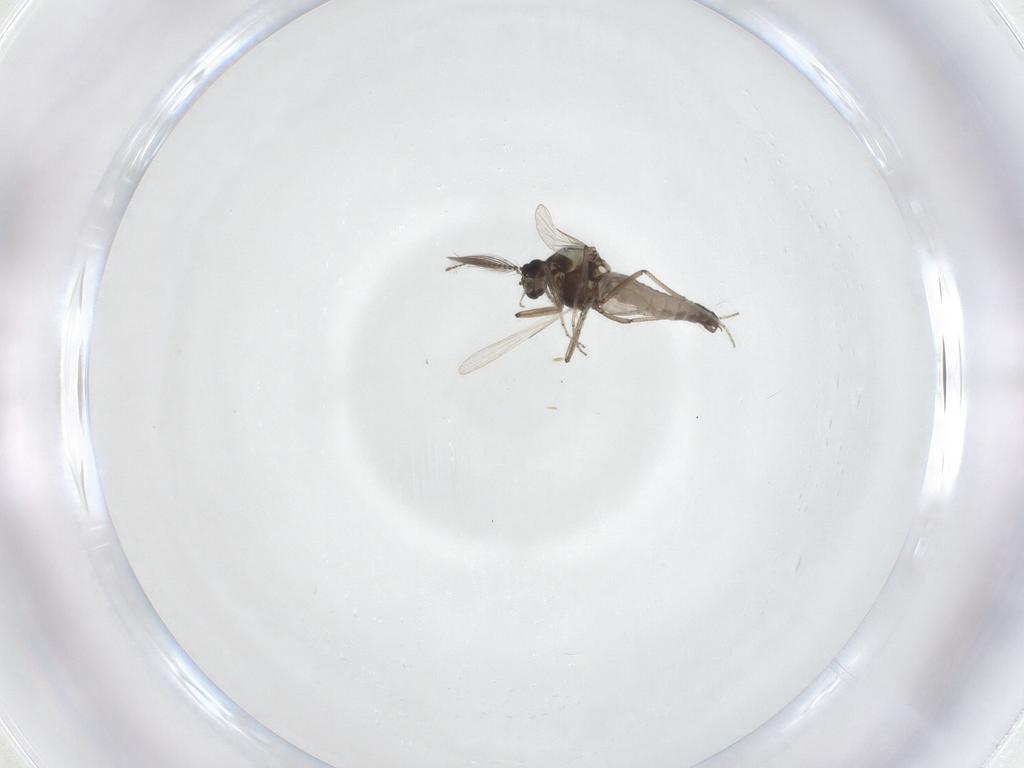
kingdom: Animalia
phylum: Arthropoda
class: Insecta
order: Diptera
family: Ceratopogonidae
